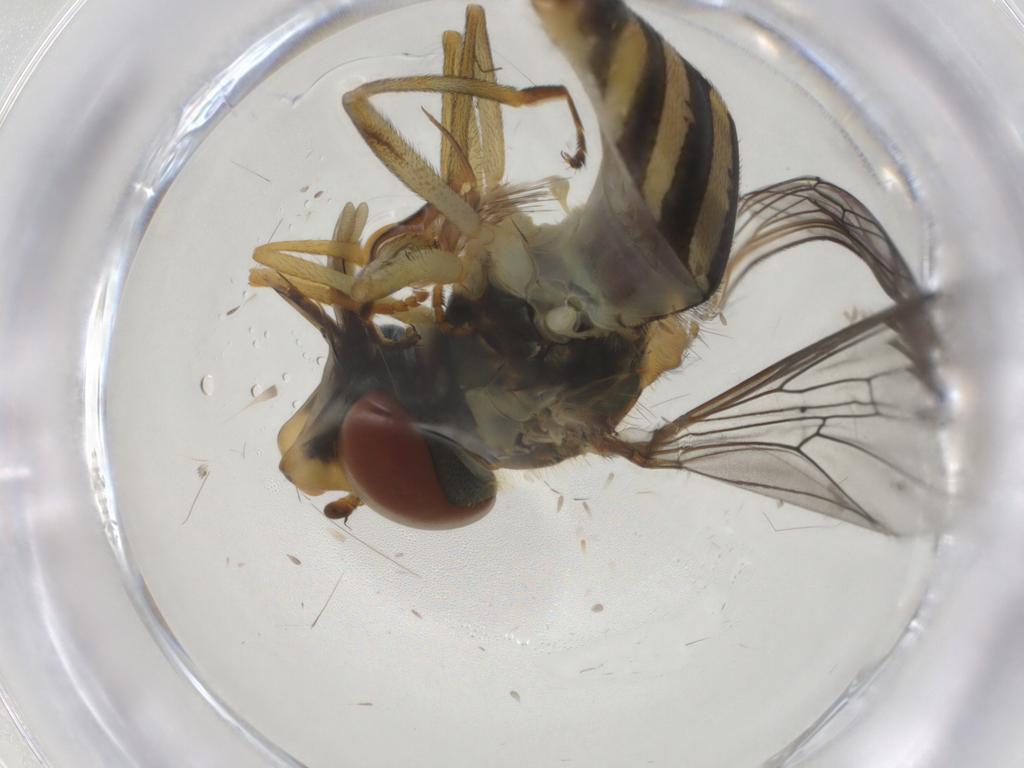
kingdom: Animalia
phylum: Arthropoda
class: Insecta
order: Diptera
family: Syrphidae
